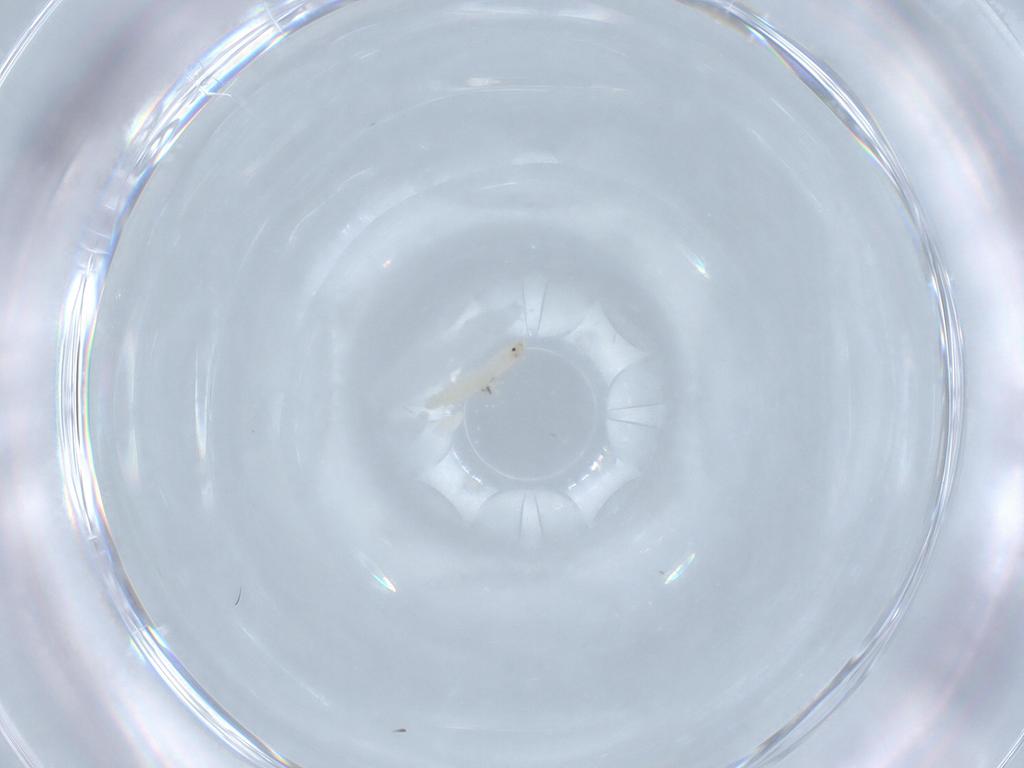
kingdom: Animalia
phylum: Arthropoda
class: Insecta
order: Diptera
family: Cecidomyiidae
